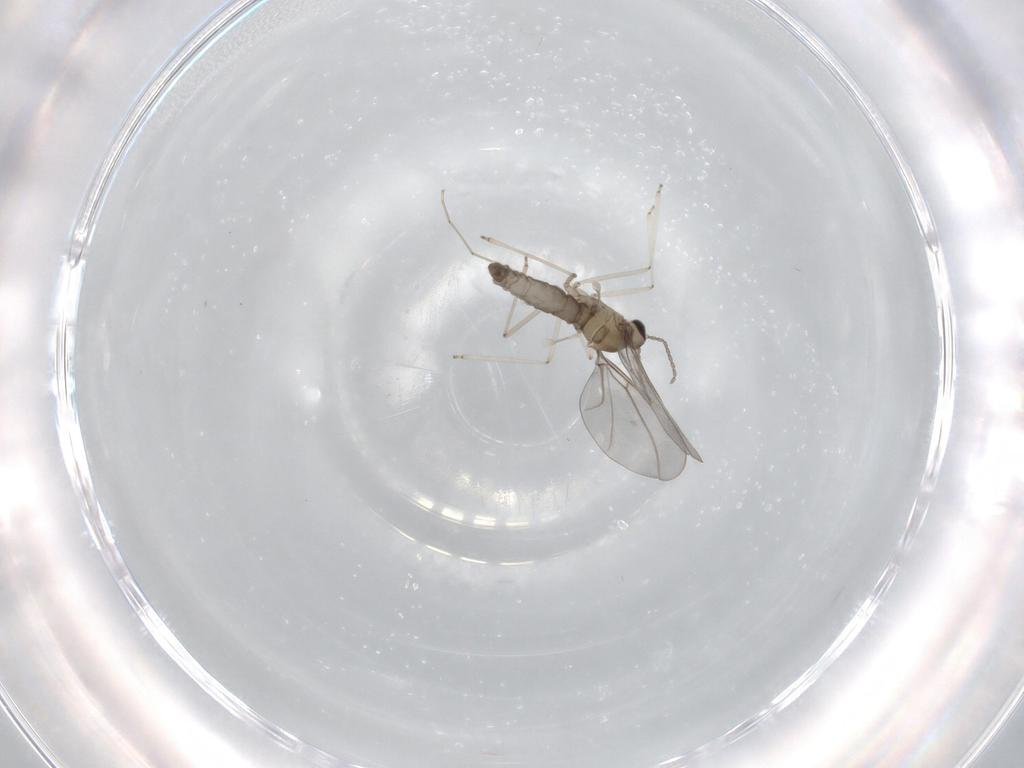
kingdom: Animalia
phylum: Arthropoda
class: Insecta
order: Diptera
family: Cecidomyiidae
